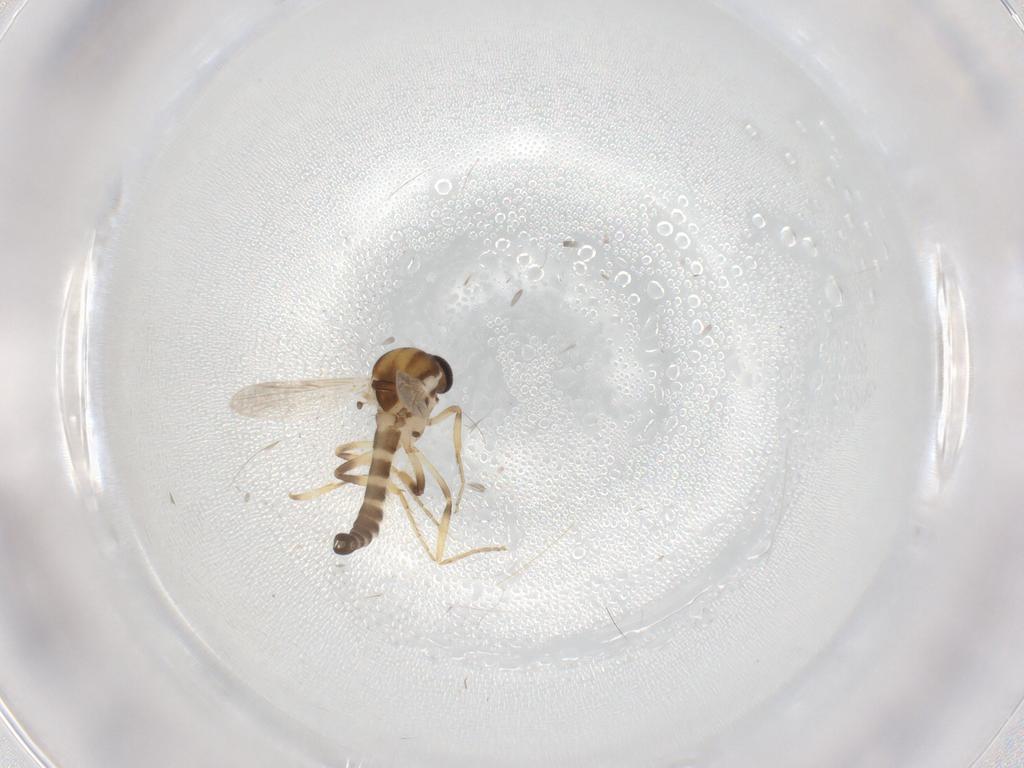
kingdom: Animalia
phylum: Arthropoda
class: Insecta
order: Diptera
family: Ceratopogonidae
